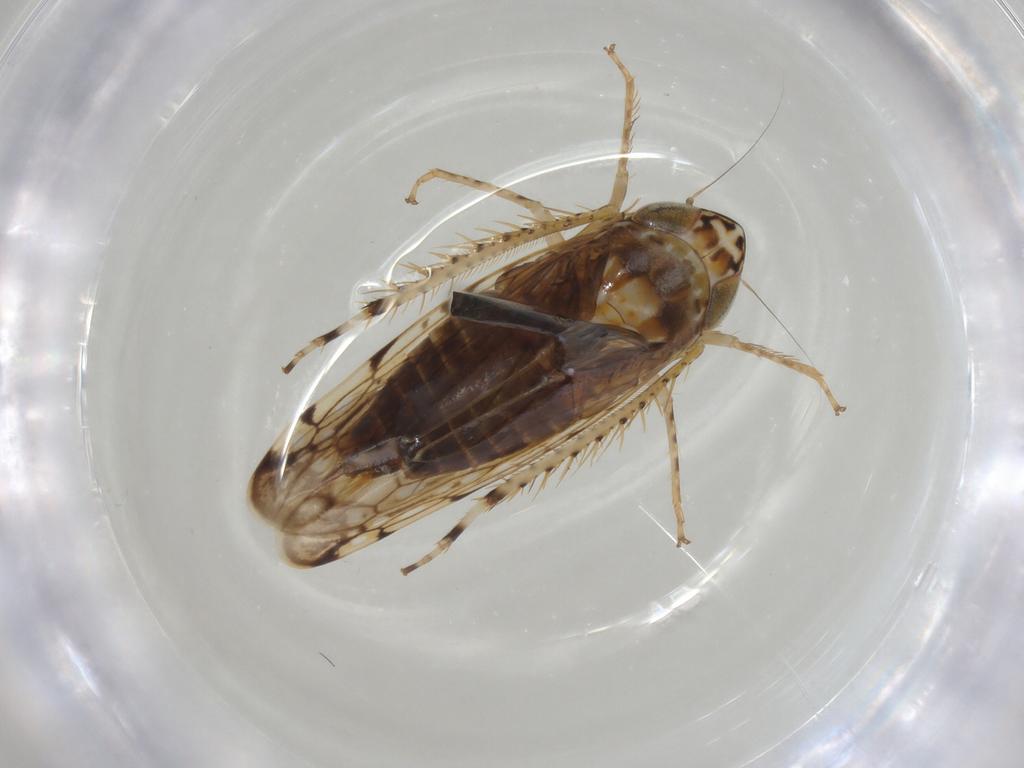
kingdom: Animalia
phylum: Arthropoda
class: Insecta
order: Hemiptera
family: Cicadellidae
